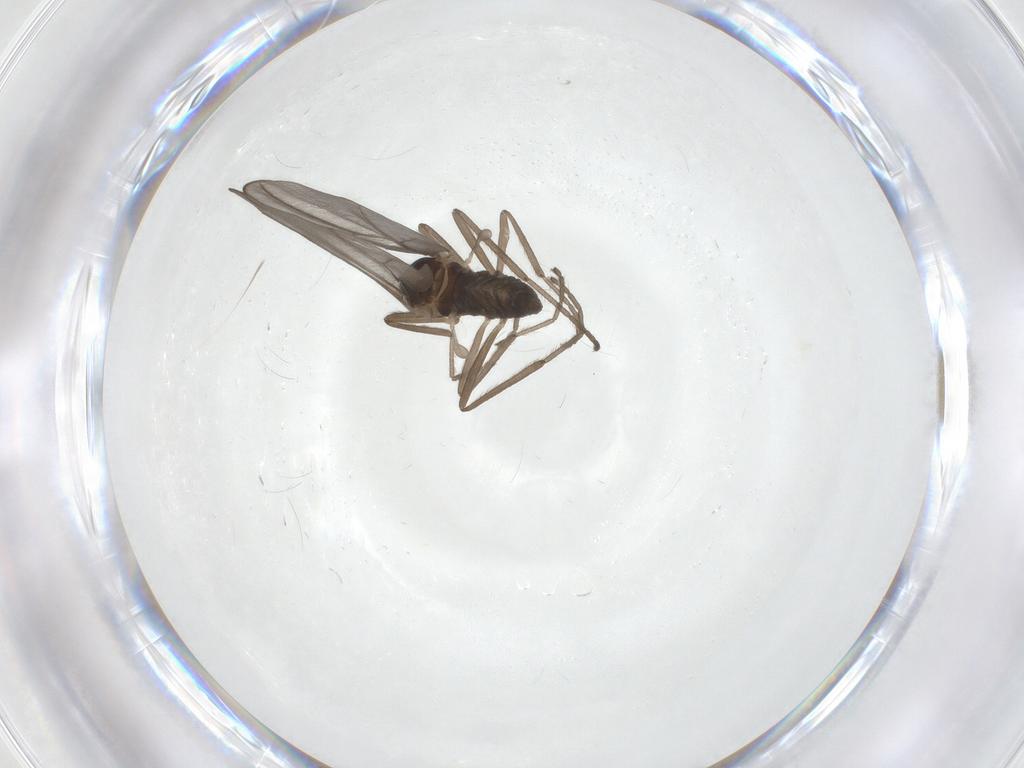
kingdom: Animalia
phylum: Arthropoda
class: Insecta
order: Diptera
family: Cecidomyiidae
